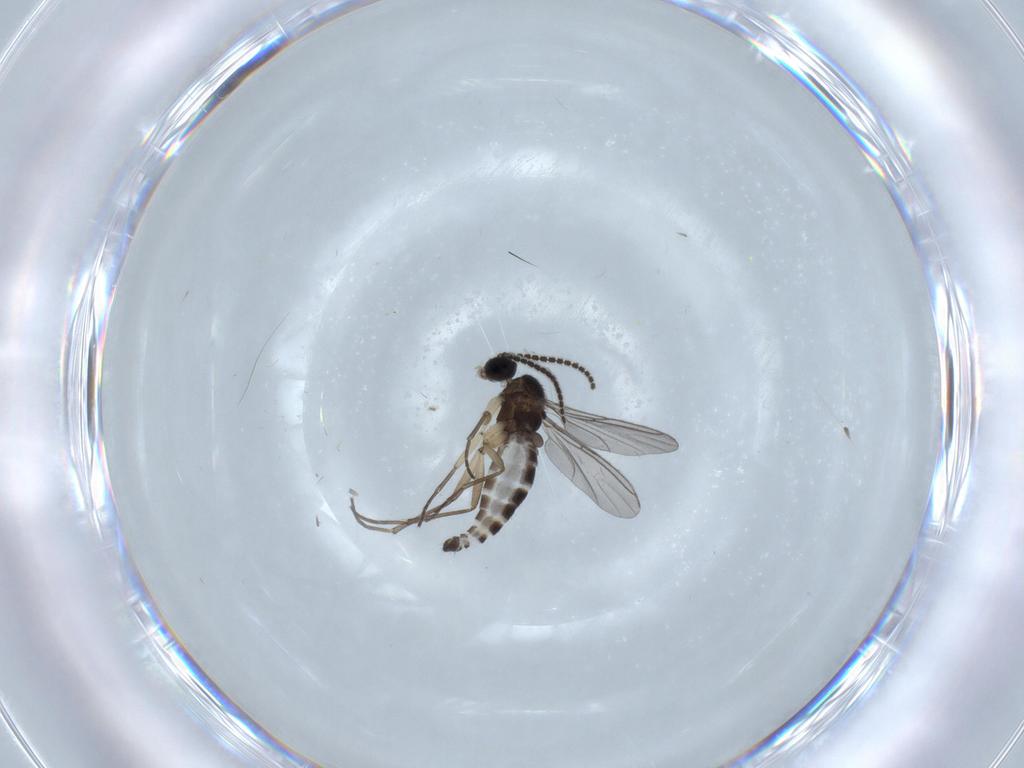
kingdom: Animalia
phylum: Arthropoda
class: Insecta
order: Diptera
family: Sciaridae
